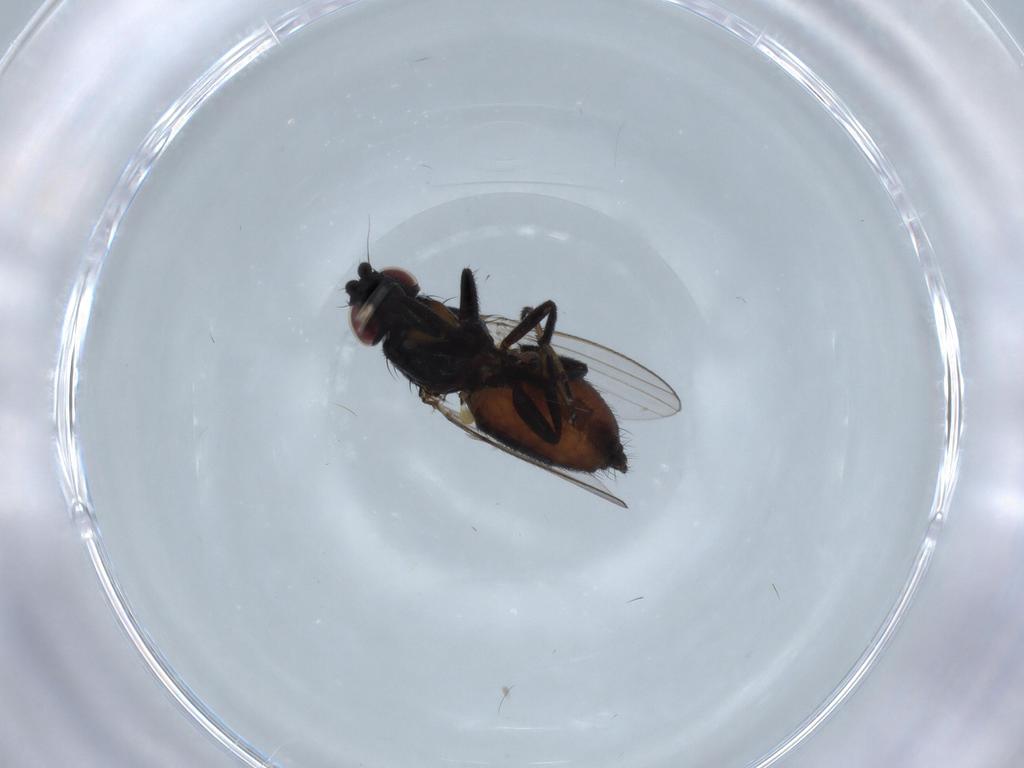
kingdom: Animalia
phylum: Arthropoda
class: Insecta
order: Diptera
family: Milichiidae
